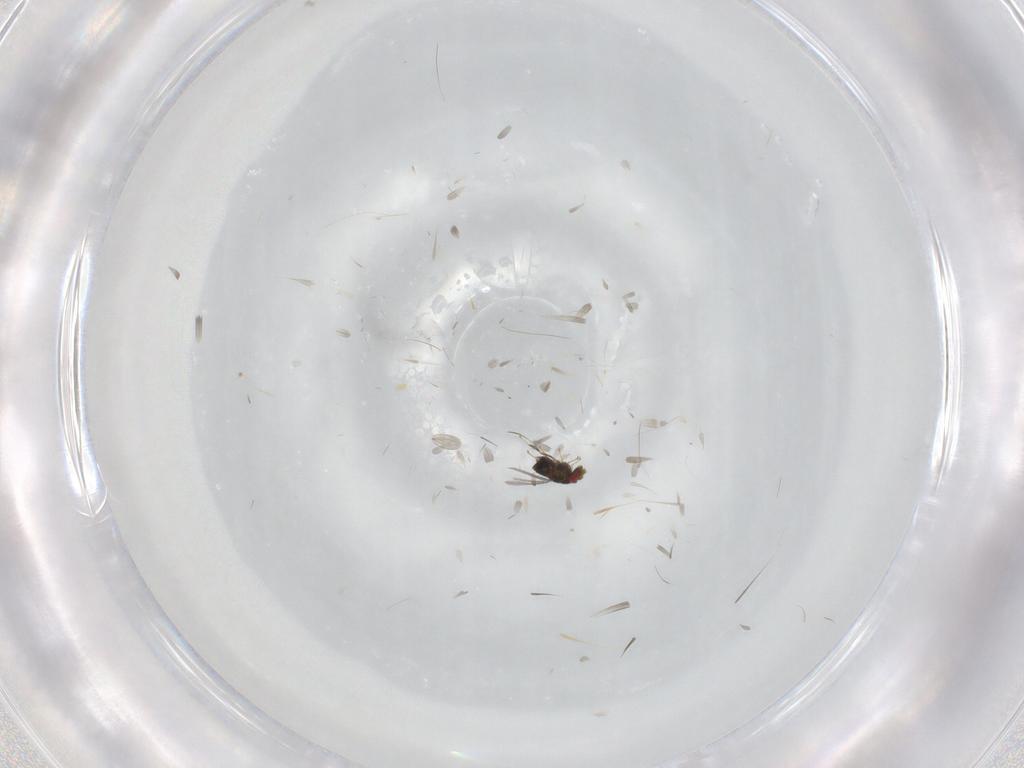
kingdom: Animalia
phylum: Arthropoda
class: Insecta
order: Hymenoptera
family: Trichogrammatidae
